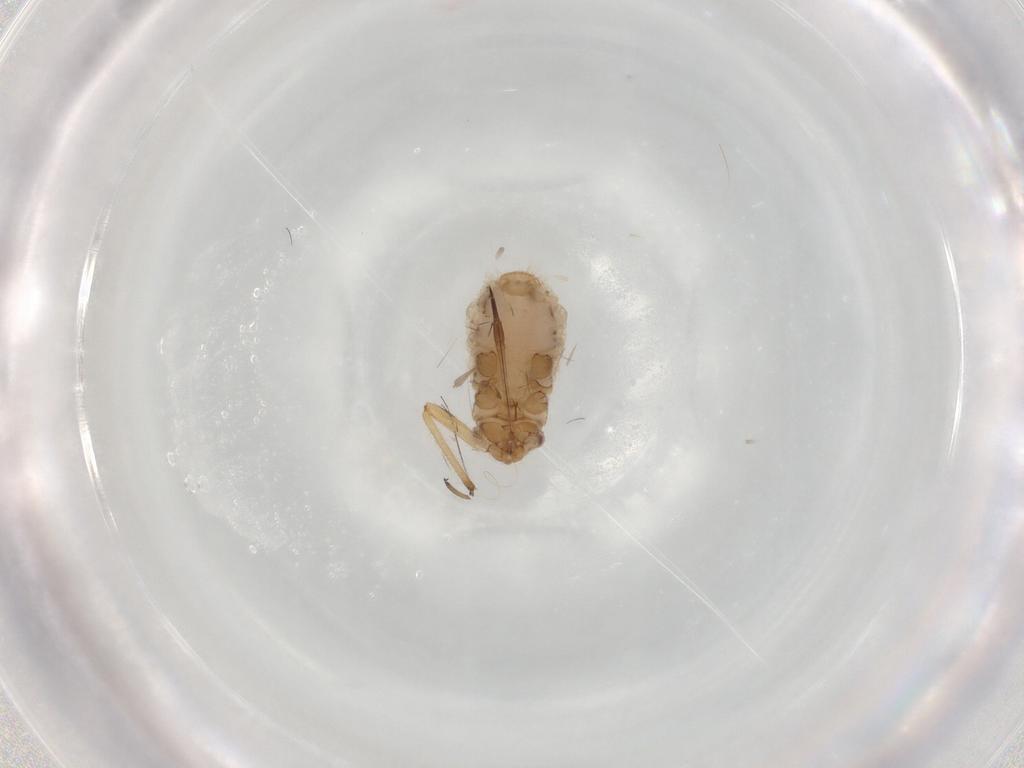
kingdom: Animalia
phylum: Arthropoda
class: Insecta
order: Hemiptera
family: Aphididae
